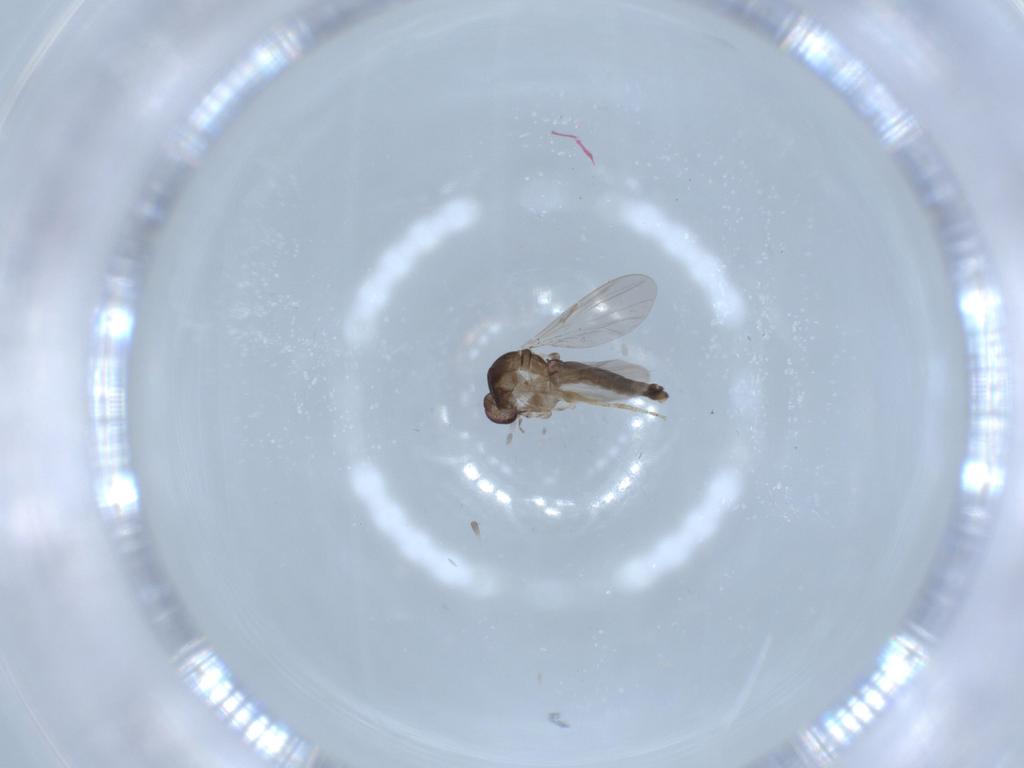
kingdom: Animalia
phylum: Arthropoda
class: Insecta
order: Diptera
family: Ceratopogonidae
